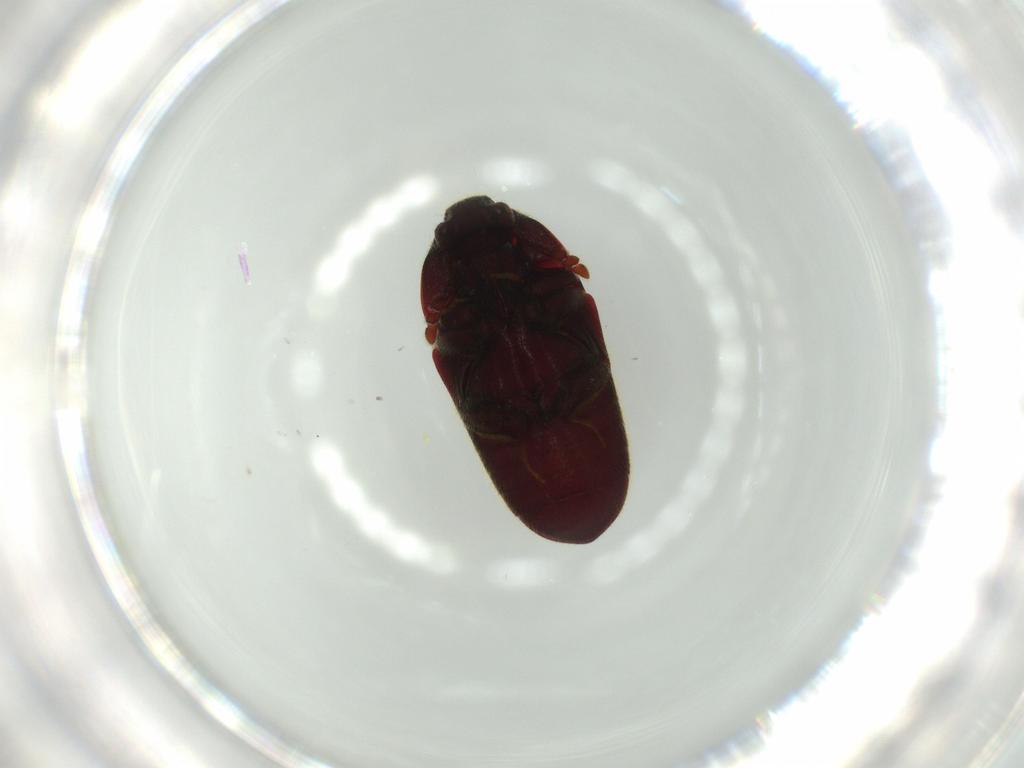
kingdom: Animalia
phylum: Arthropoda
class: Insecta
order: Coleoptera
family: Throscidae
